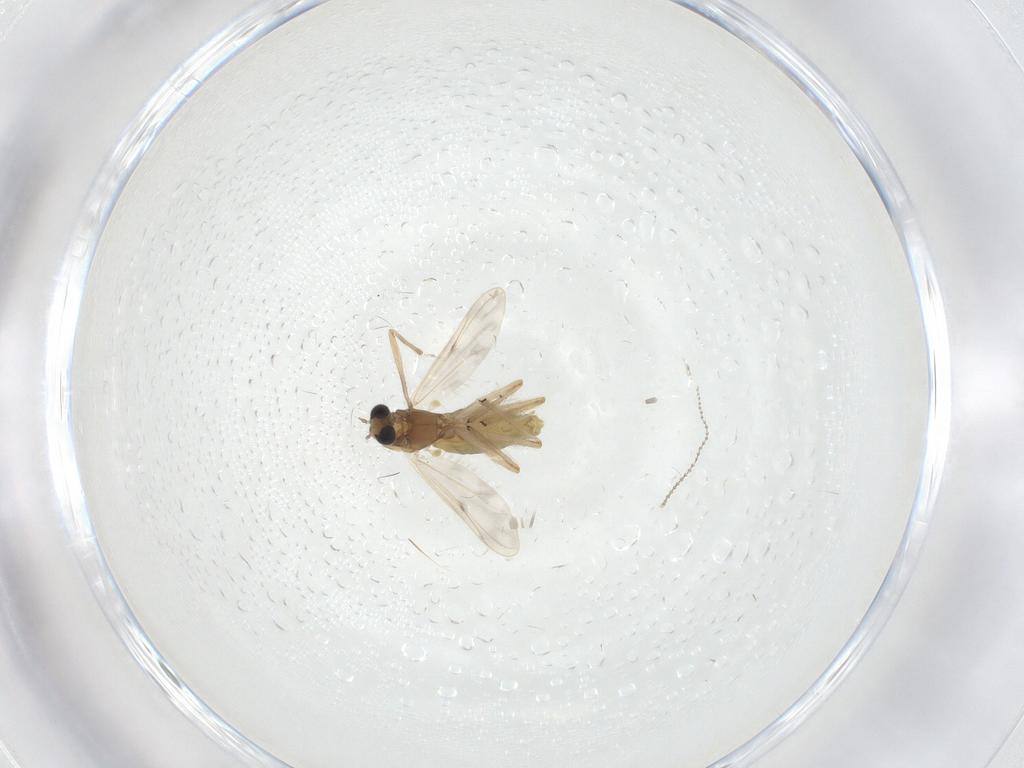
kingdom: Animalia
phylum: Arthropoda
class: Insecta
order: Diptera
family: Chironomidae
